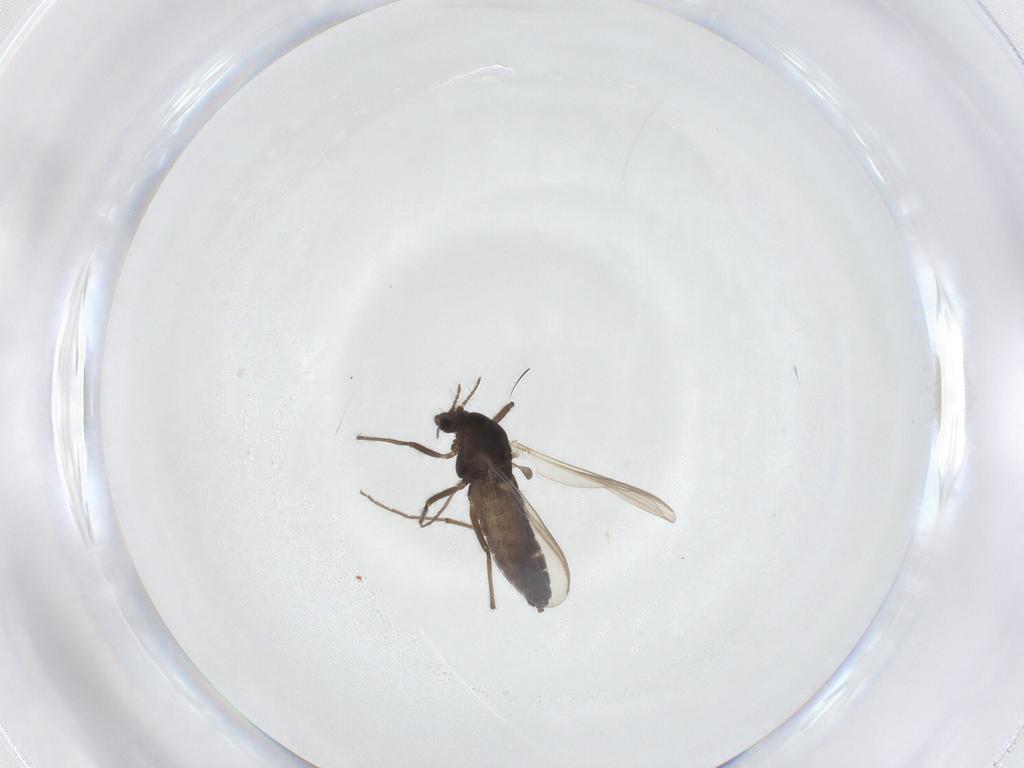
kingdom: Animalia
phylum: Arthropoda
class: Insecta
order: Diptera
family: Chironomidae
